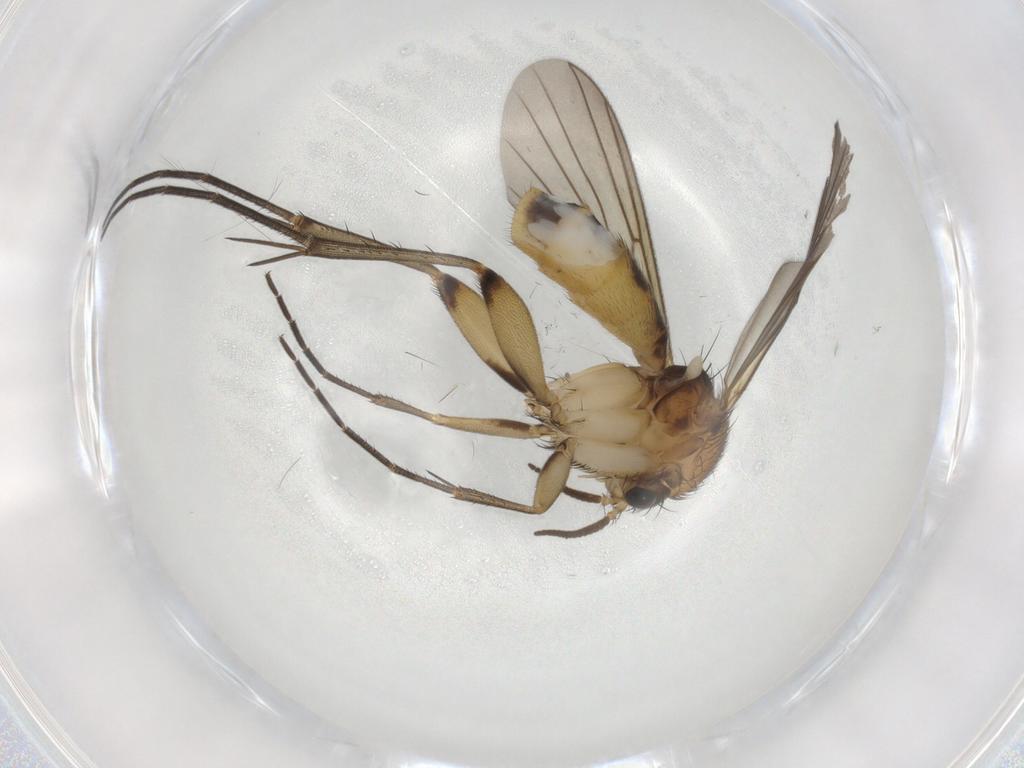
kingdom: Animalia
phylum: Arthropoda
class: Insecta
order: Diptera
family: Mycetophilidae
